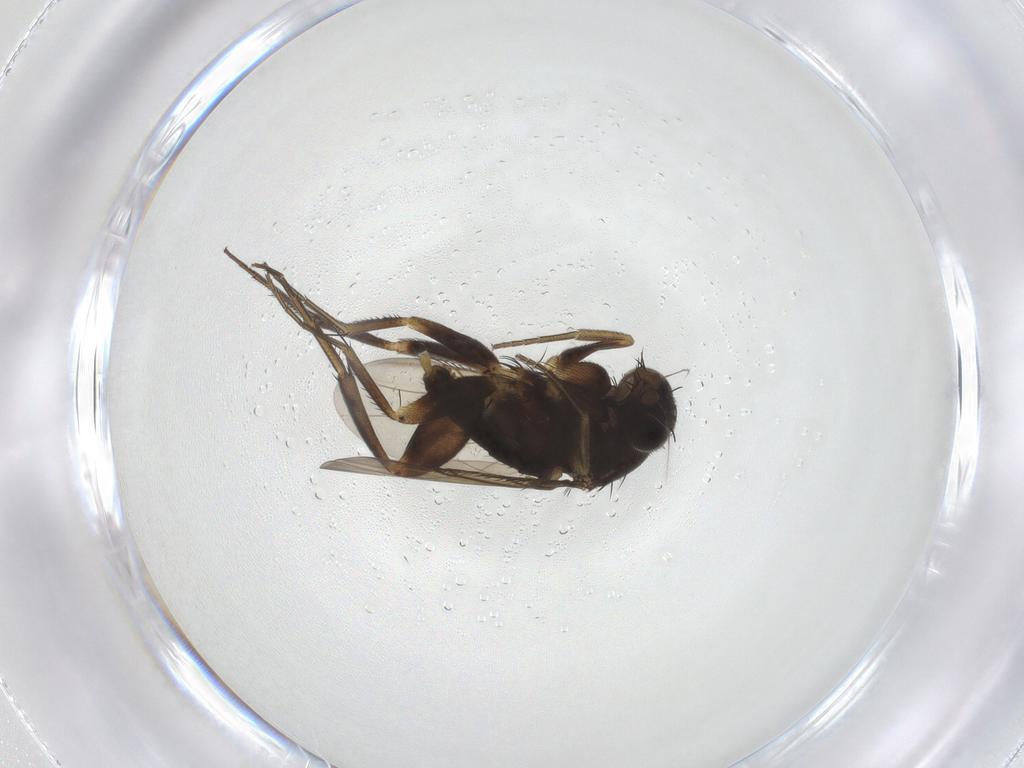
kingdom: Animalia
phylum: Arthropoda
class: Insecta
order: Diptera
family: Phoridae
